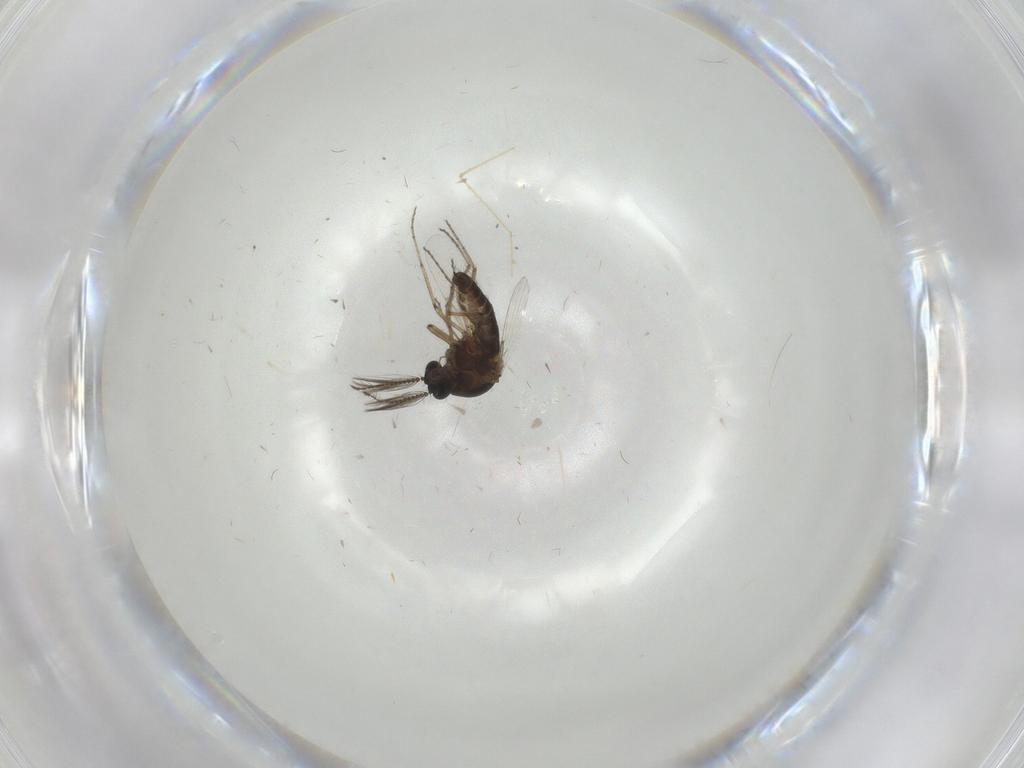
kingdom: Animalia
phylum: Arthropoda
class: Insecta
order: Diptera
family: Ceratopogonidae
